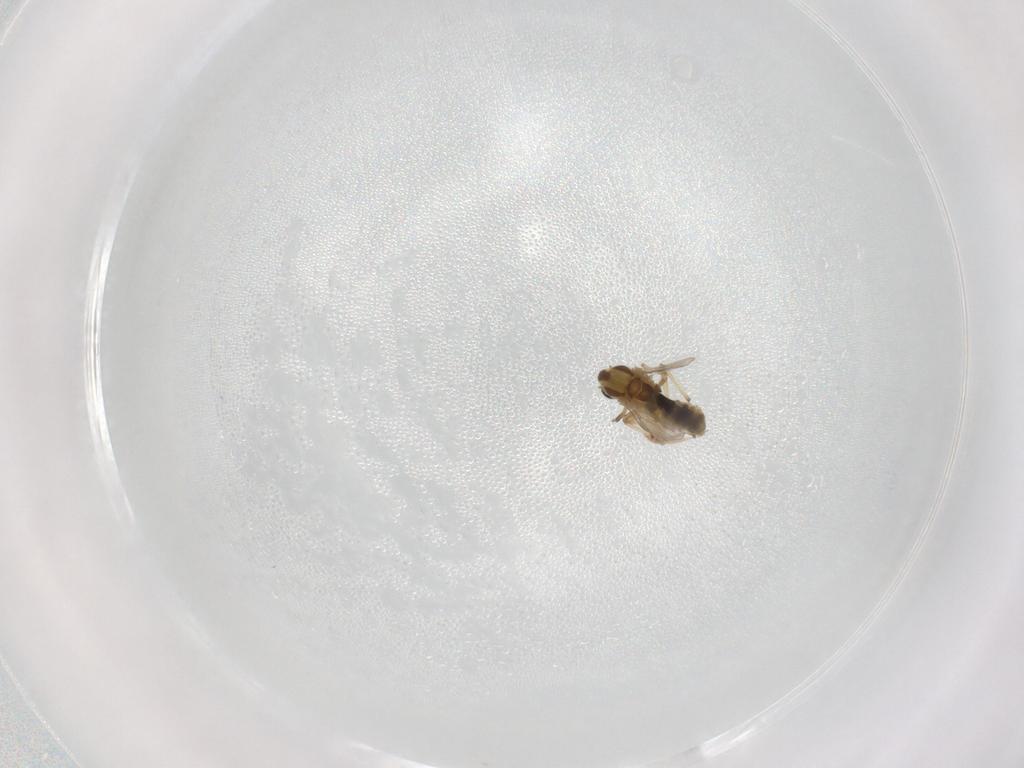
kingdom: Animalia
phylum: Arthropoda
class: Insecta
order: Diptera
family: Chironomidae
